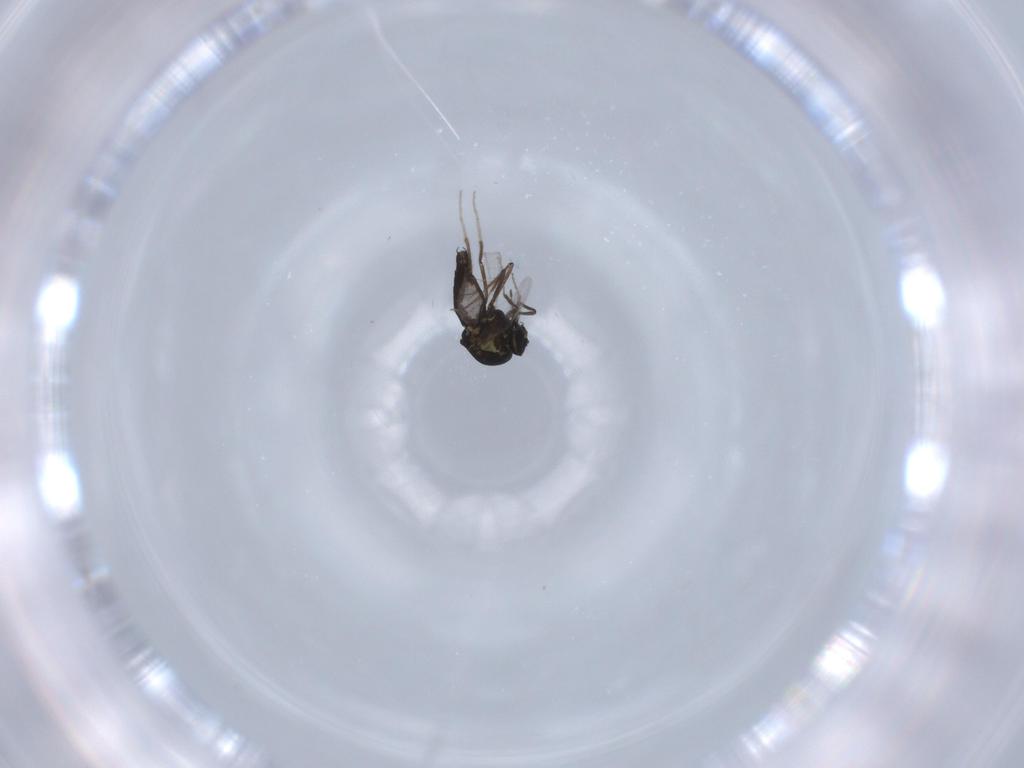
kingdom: Animalia
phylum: Arthropoda
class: Insecta
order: Diptera
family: Ceratopogonidae
